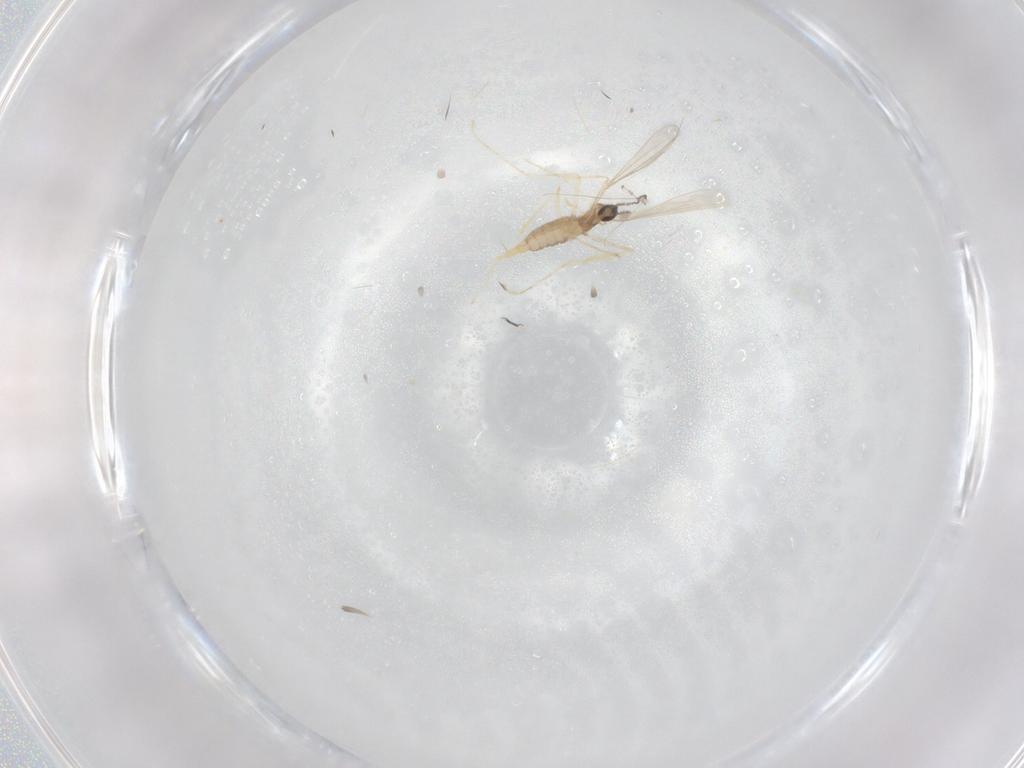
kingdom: Animalia
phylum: Arthropoda
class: Insecta
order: Diptera
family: Cecidomyiidae
